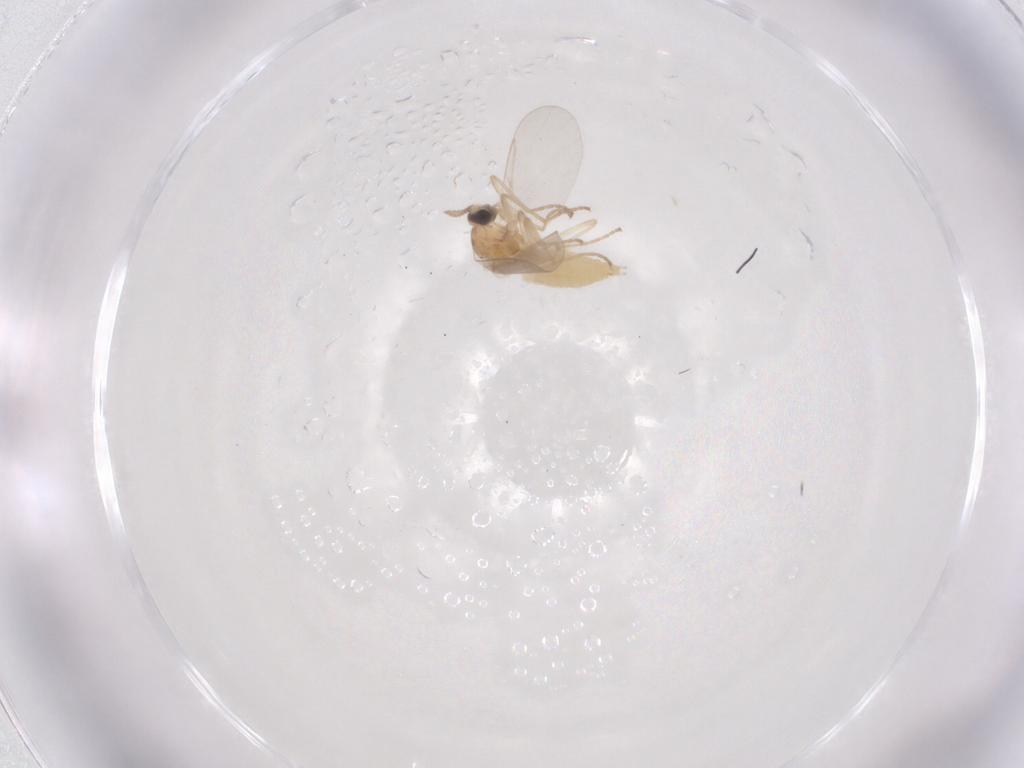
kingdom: Animalia
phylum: Arthropoda
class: Insecta
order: Diptera
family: Cecidomyiidae
